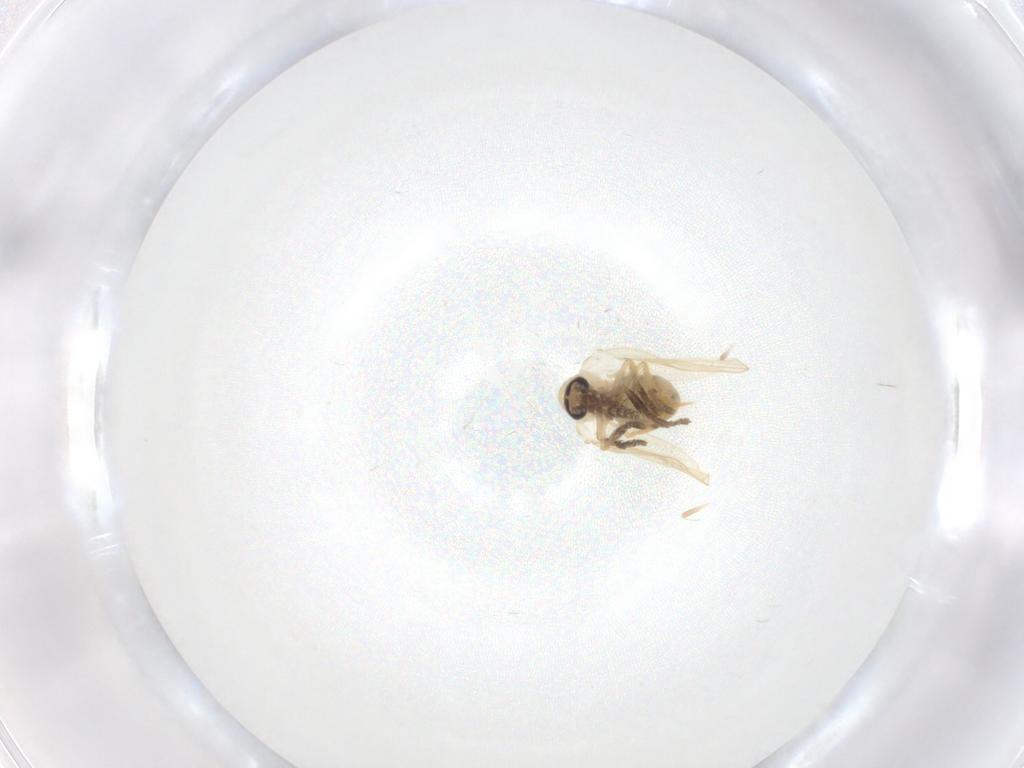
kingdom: Animalia
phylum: Arthropoda
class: Insecta
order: Diptera
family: Psychodidae
